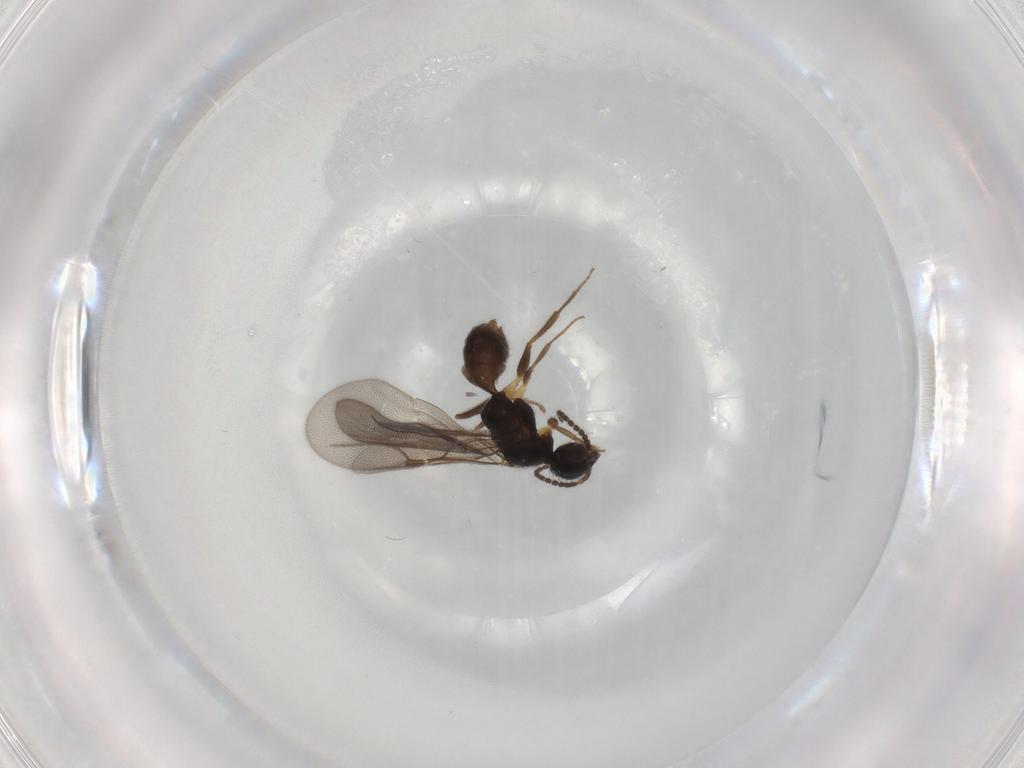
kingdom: Animalia
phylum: Arthropoda
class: Insecta
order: Hymenoptera
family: Bethylidae
